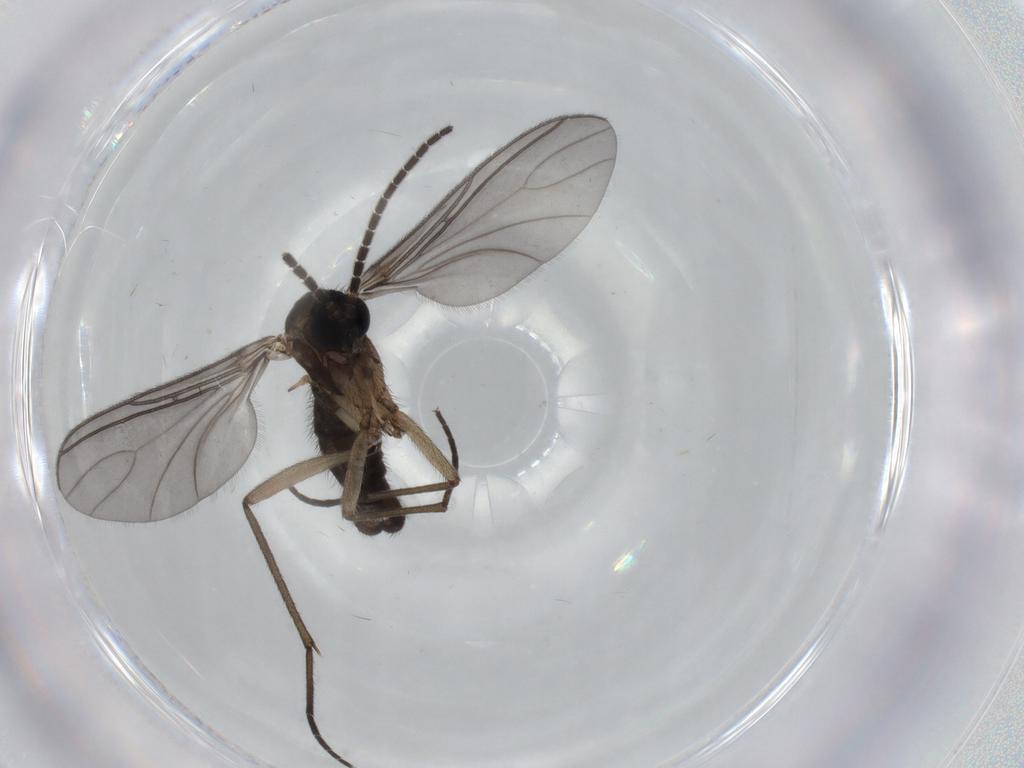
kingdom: Animalia
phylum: Arthropoda
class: Insecta
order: Diptera
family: Sciaridae
